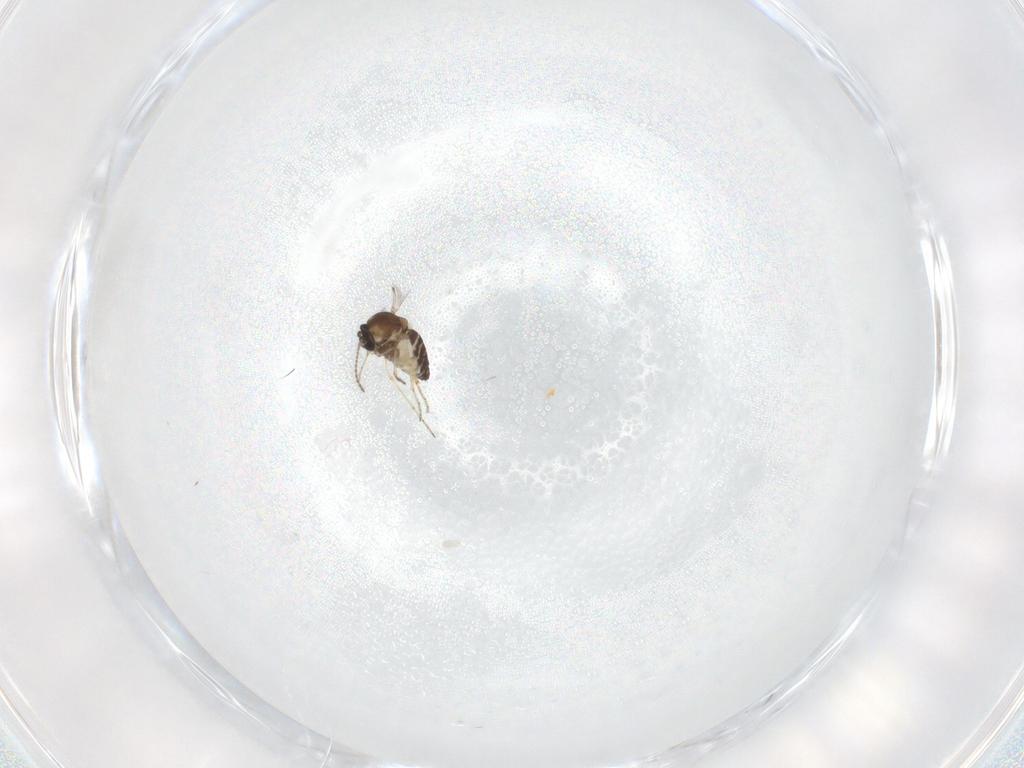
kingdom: Animalia
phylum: Arthropoda
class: Insecta
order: Diptera
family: Ceratopogonidae
